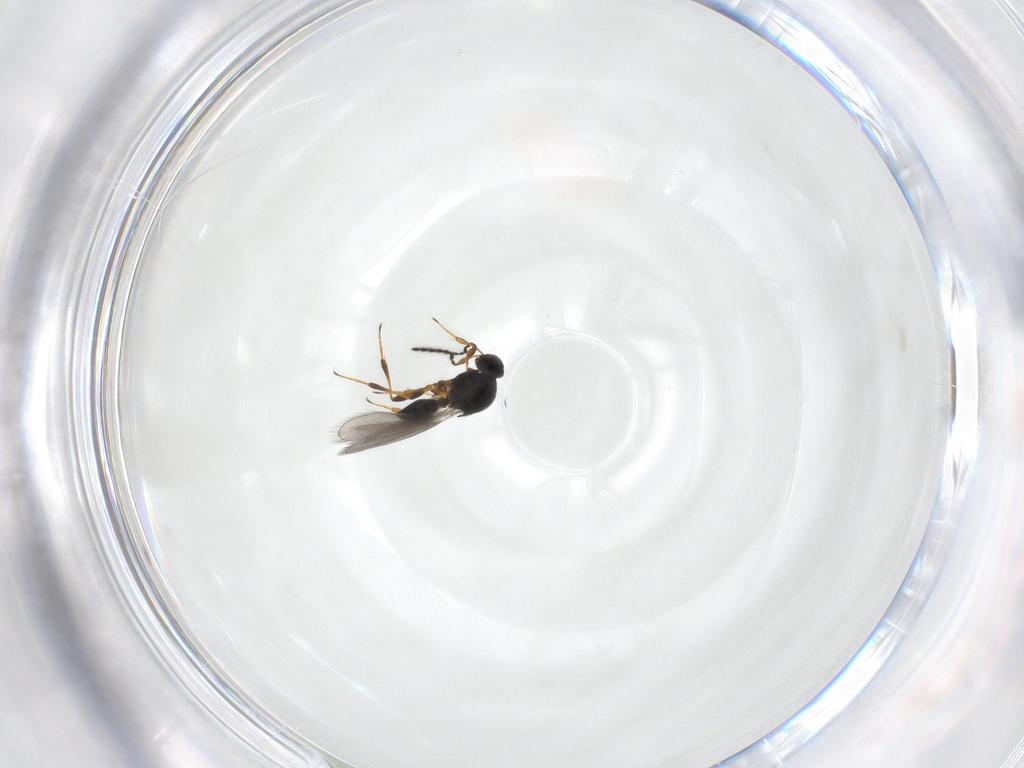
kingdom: Animalia
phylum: Arthropoda
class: Insecta
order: Hymenoptera
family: Platygastridae
